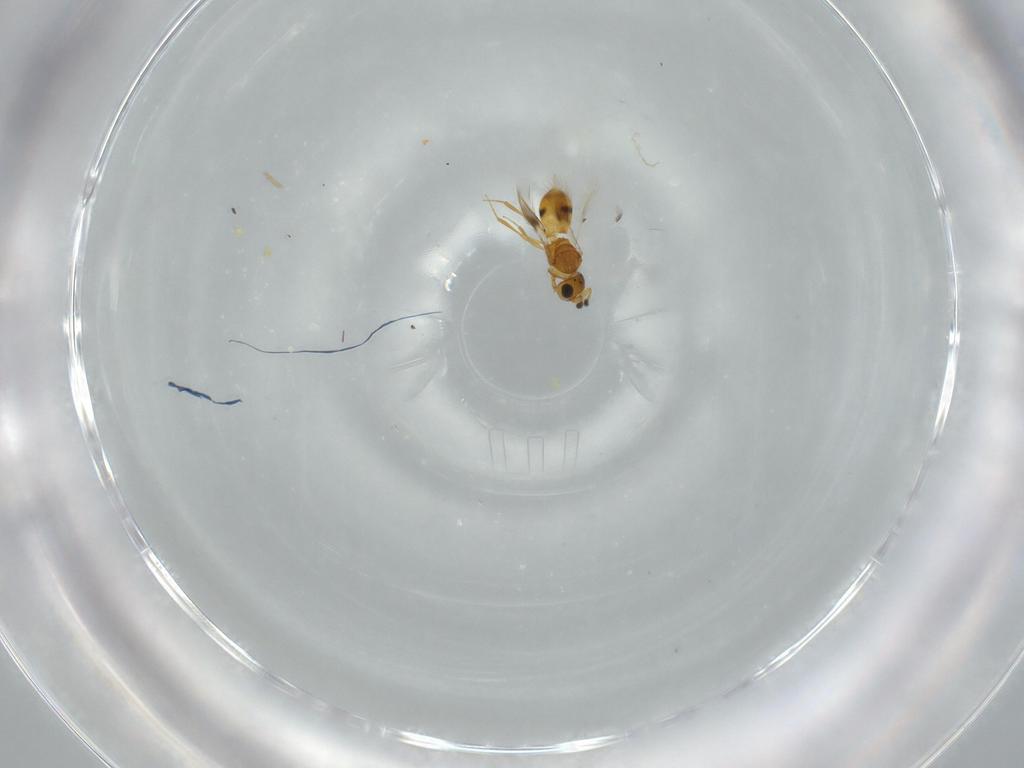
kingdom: Animalia
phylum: Arthropoda
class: Insecta
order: Hymenoptera
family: Scelionidae
